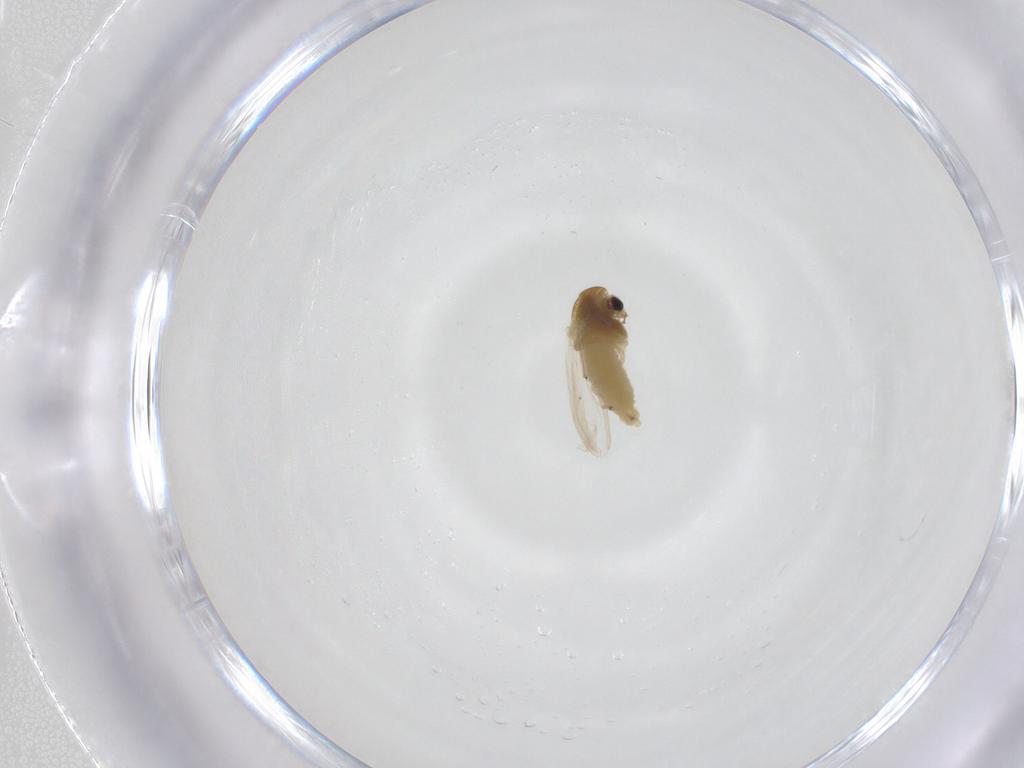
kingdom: Animalia
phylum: Arthropoda
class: Insecta
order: Diptera
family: Chironomidae
